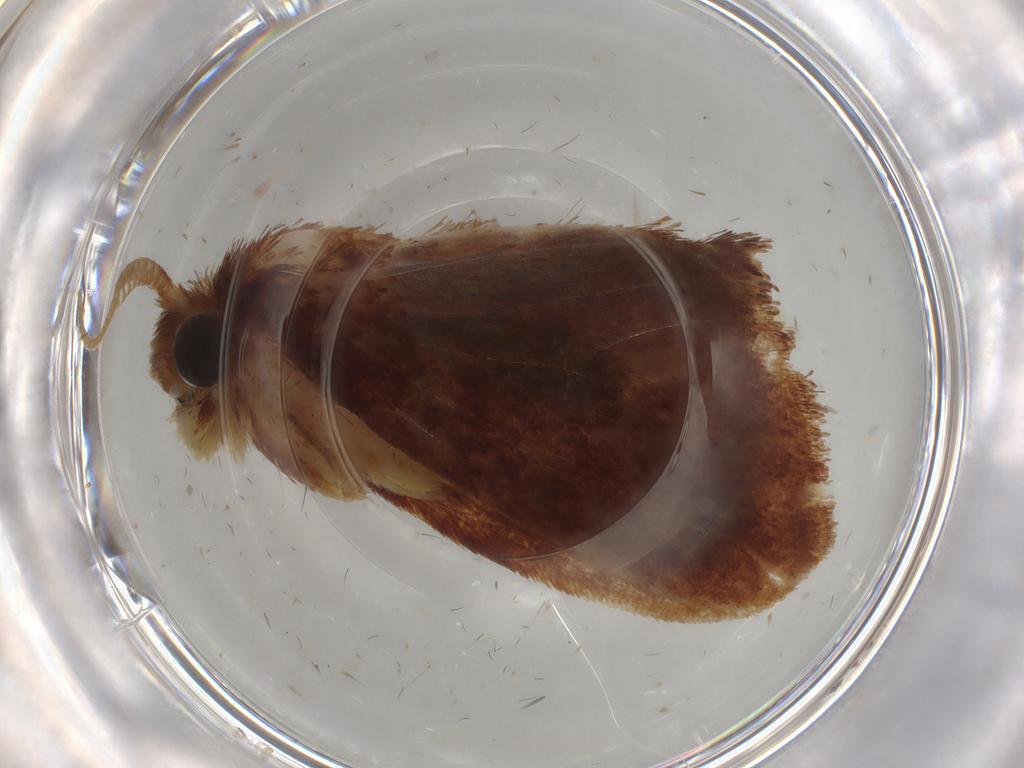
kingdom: Animalia
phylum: Arthropoda
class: Insecta
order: Lepidoptera
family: Limacodidae
